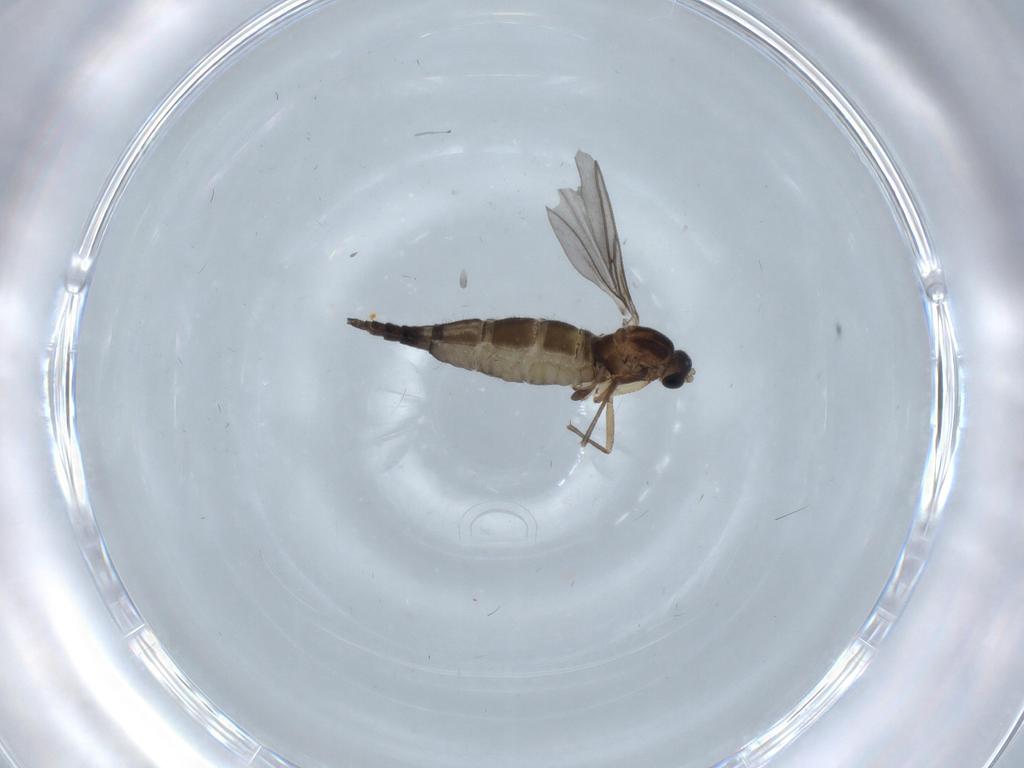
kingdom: Animalia
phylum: Arthropoda
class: Insecta
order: Diptera
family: Sciaridae
